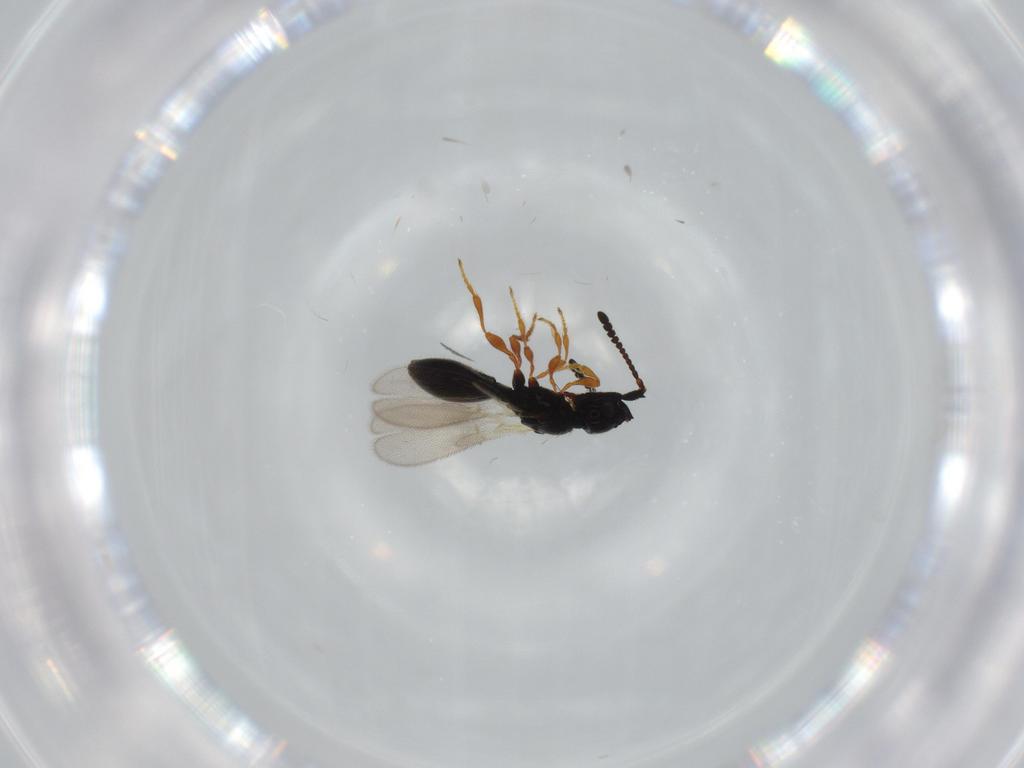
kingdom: Animalia
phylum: Arthropoda
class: Insecta
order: Hymenoptera
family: Diapriidae
